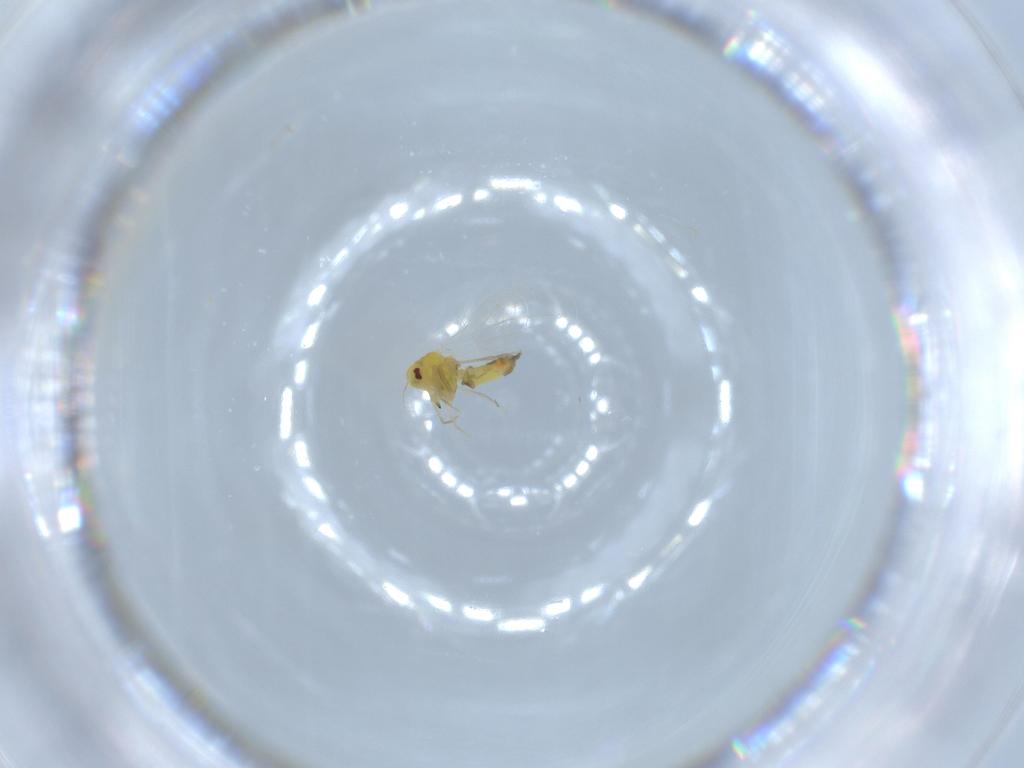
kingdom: Animalia
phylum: Arthropoda
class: Insecta
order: Hemiptera
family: Aleyrodidae
